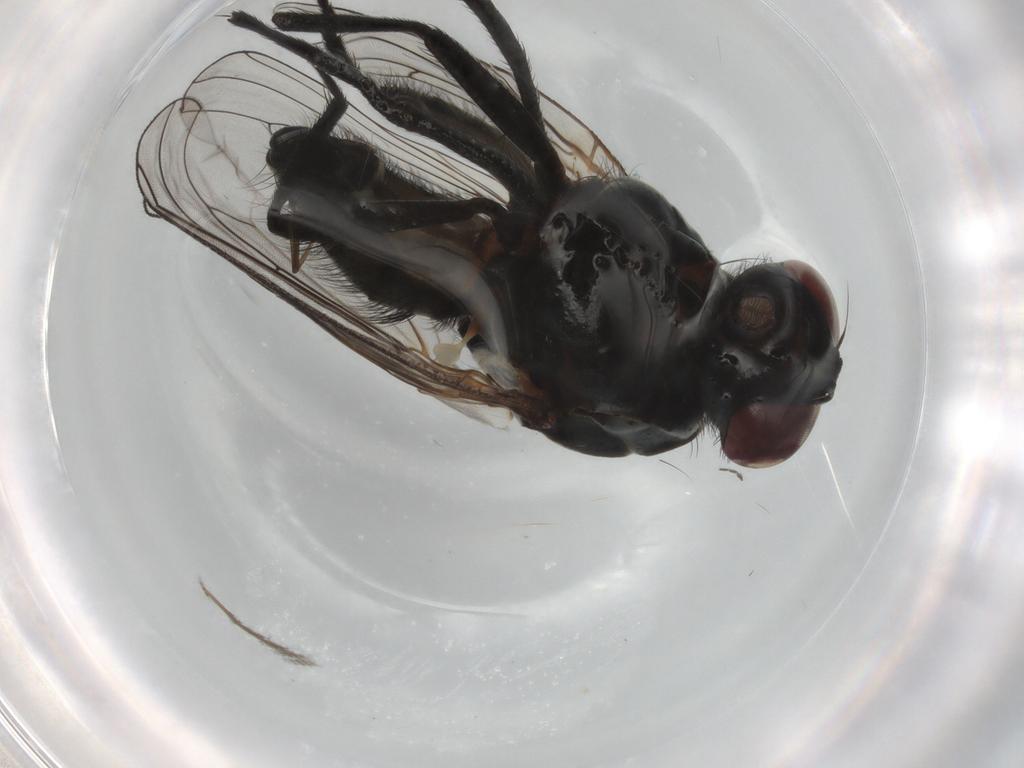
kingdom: Animalia
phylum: Arthropoda
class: Insecta
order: Diptera
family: Anthomyiidae
